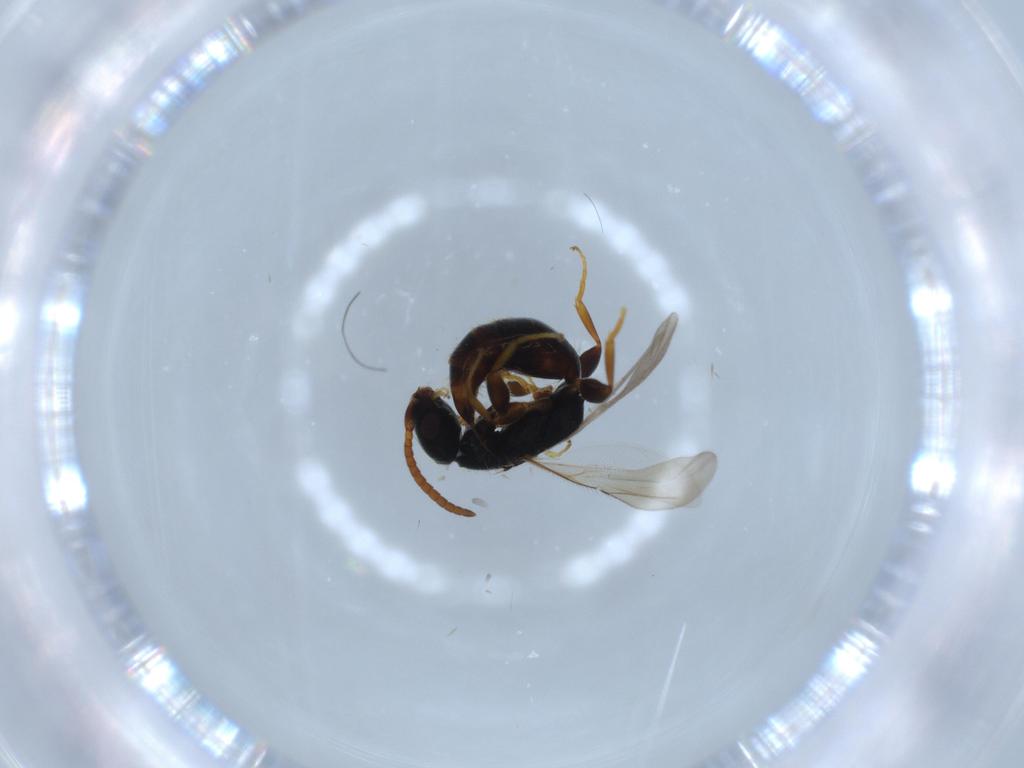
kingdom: Animalia
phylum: Arthropoda
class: Insecta
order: Hymenoptera
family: Bethylidae
